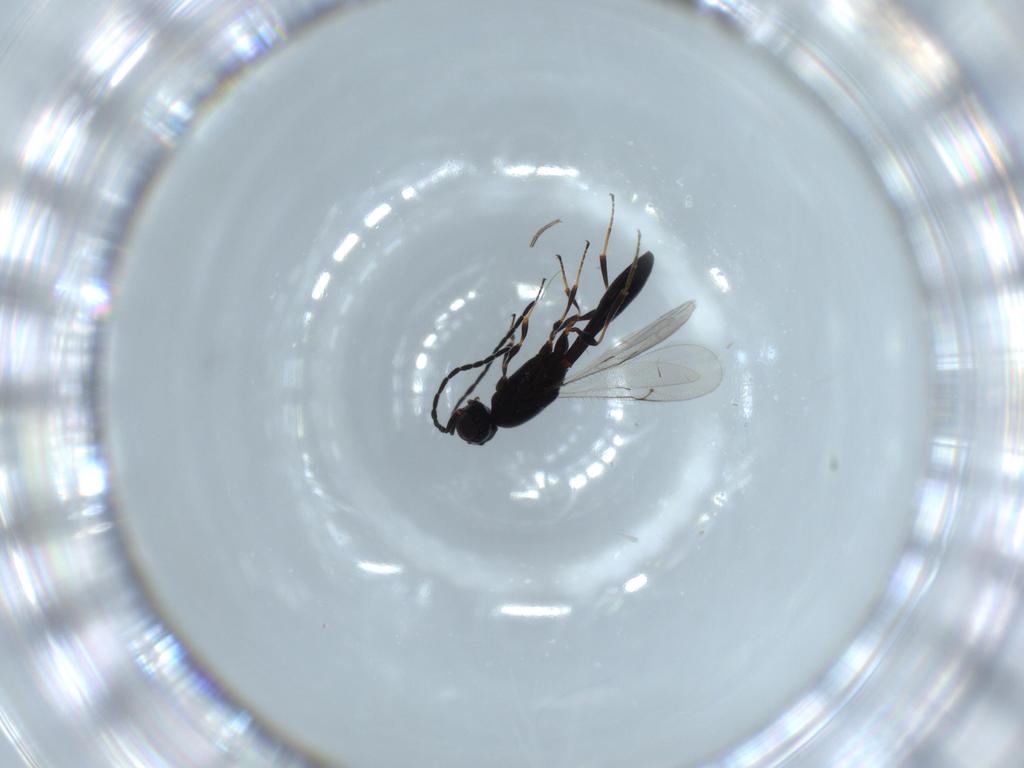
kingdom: Animalia
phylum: Arthropoda
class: Insecta
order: Hymenoptera
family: Scelionidae
